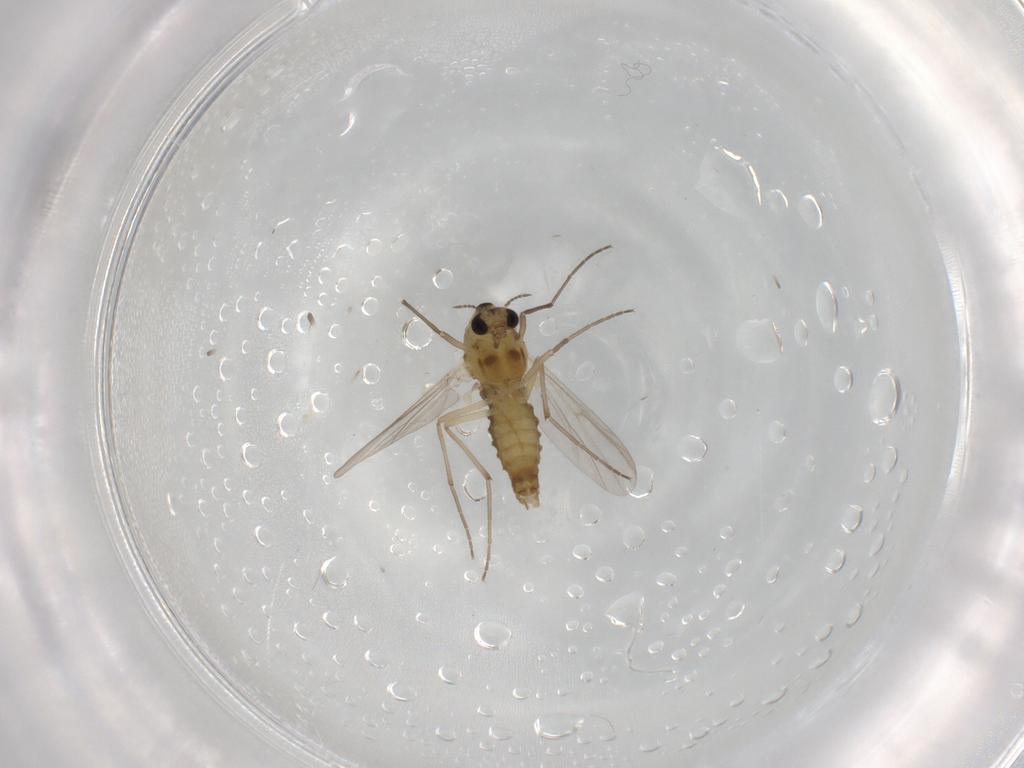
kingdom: Animalia
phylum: Arthropoda
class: Insecta
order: Diptera
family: Chironomidae
